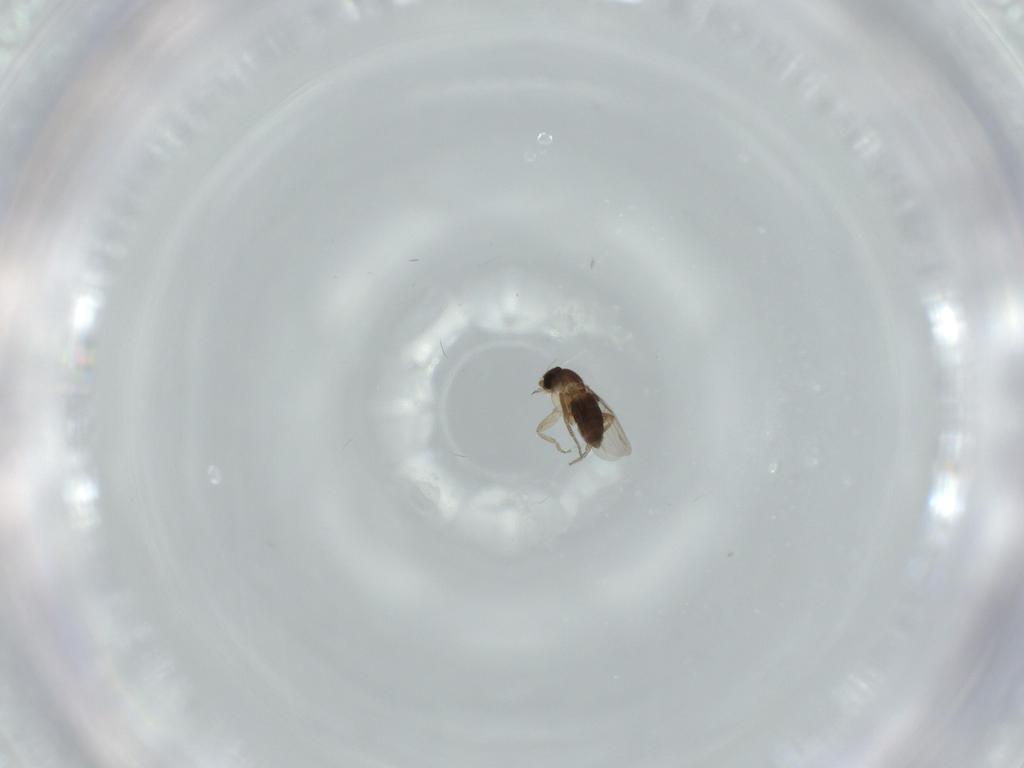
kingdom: Animalia
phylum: Arthropoda
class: Insecta
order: Diptera
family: Phoridae
